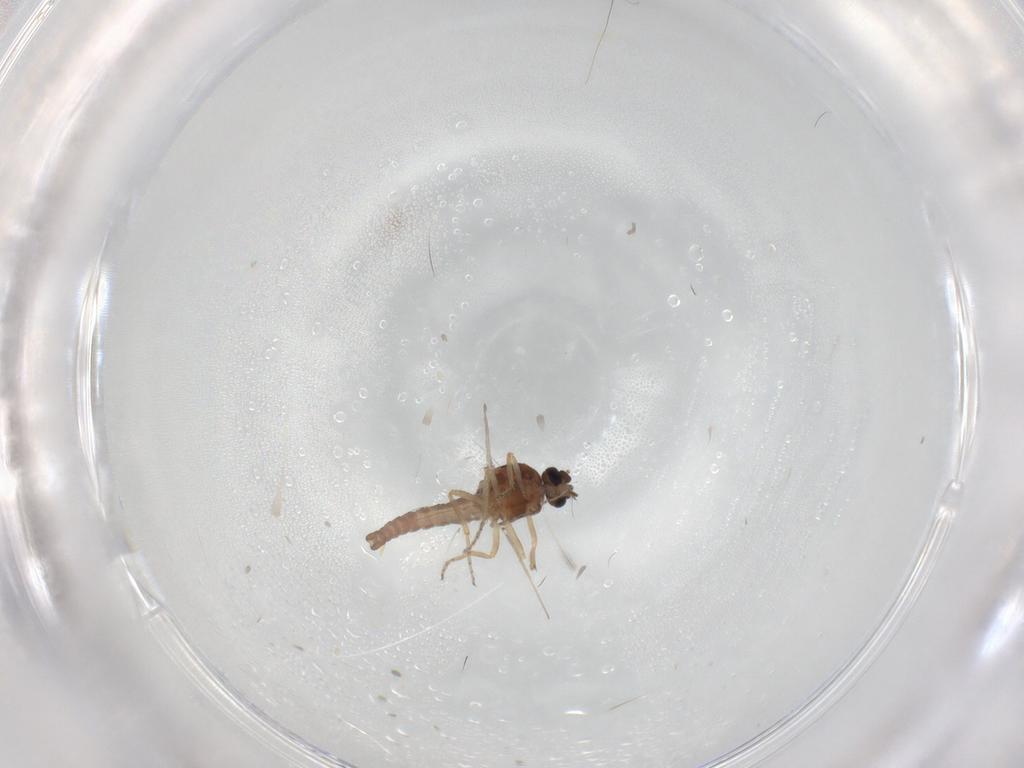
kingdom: Animalia
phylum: Arthropoda
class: Insecta
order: Diptera
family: Ceratopogonidae
